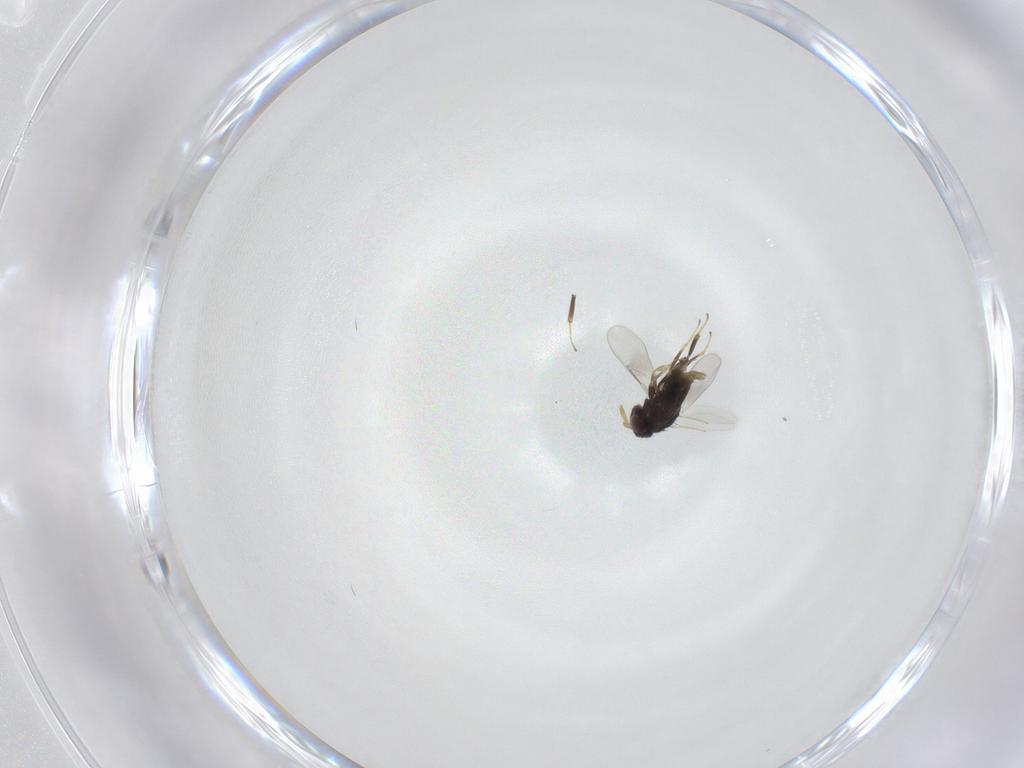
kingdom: Animalia
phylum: Arthropoda
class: Insecta
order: Hymenoptera
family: Aphelinidae
